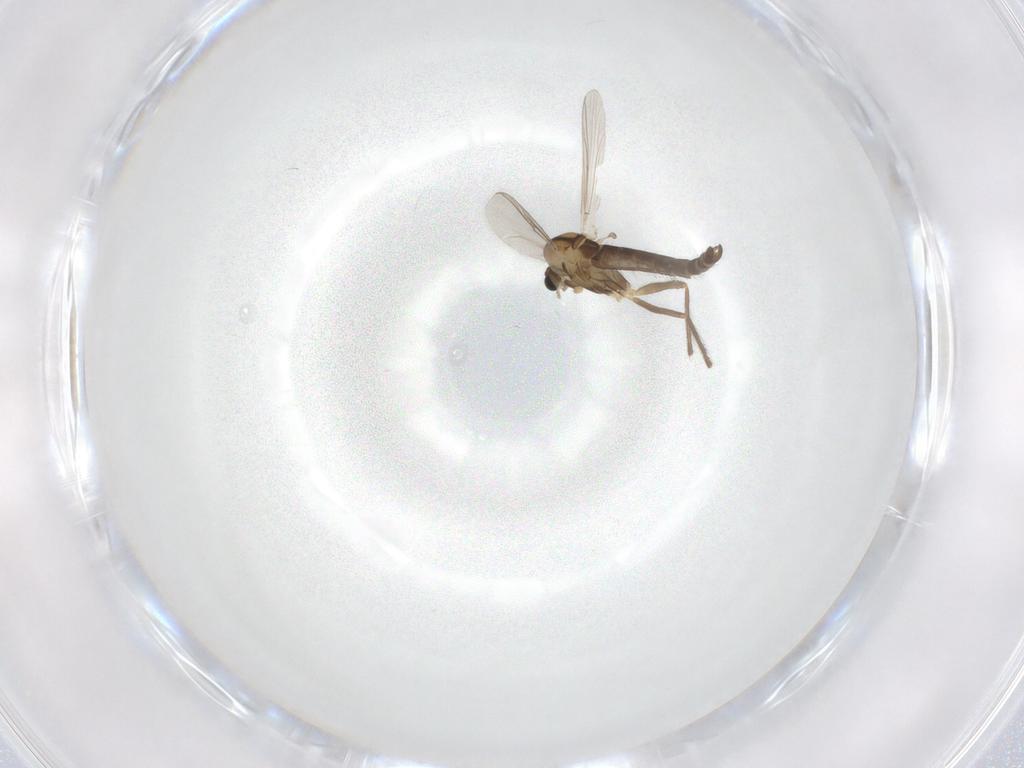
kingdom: Animalia
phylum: Arthropoda
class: Insecta
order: Diptera
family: Chironomidae
